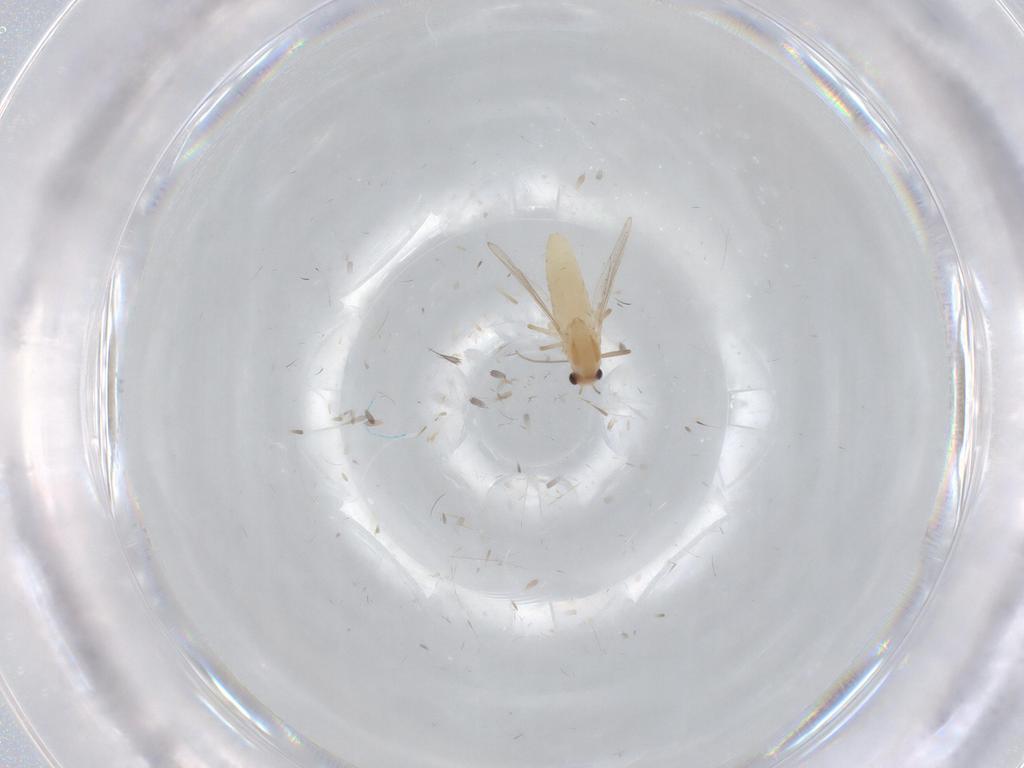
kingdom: Animalia
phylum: Arthropoda
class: Insecta
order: Diptera
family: Chironomidae
